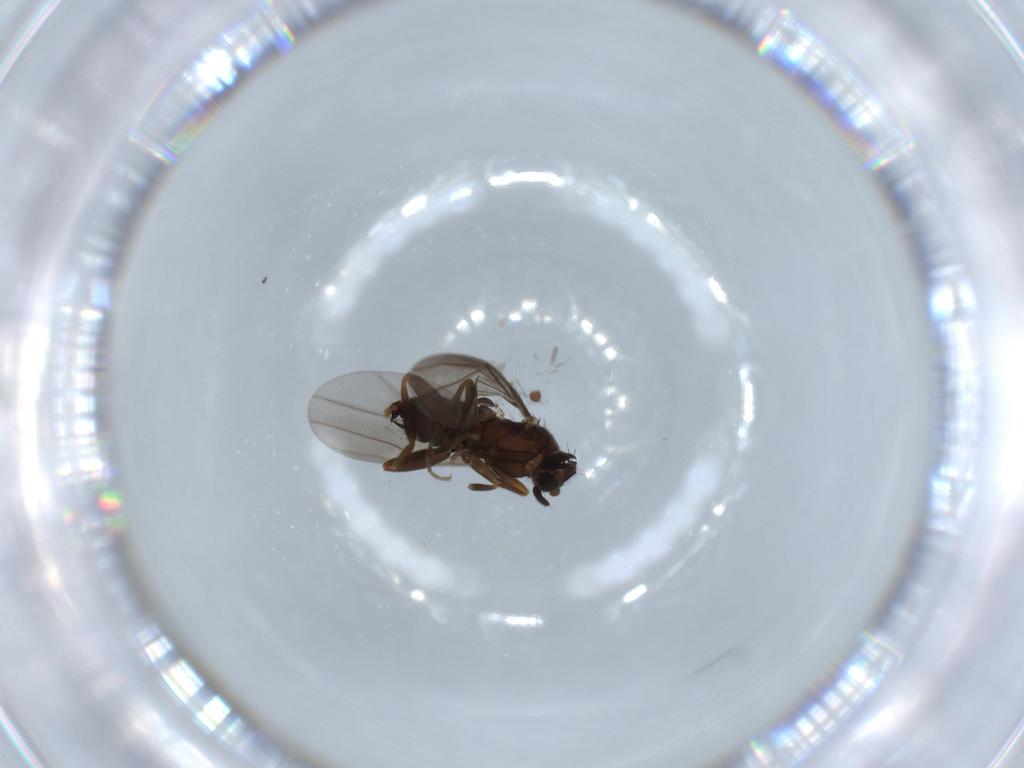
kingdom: Animalia
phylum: Arthropoda
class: Insecta
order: Diptera
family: Phoridae
